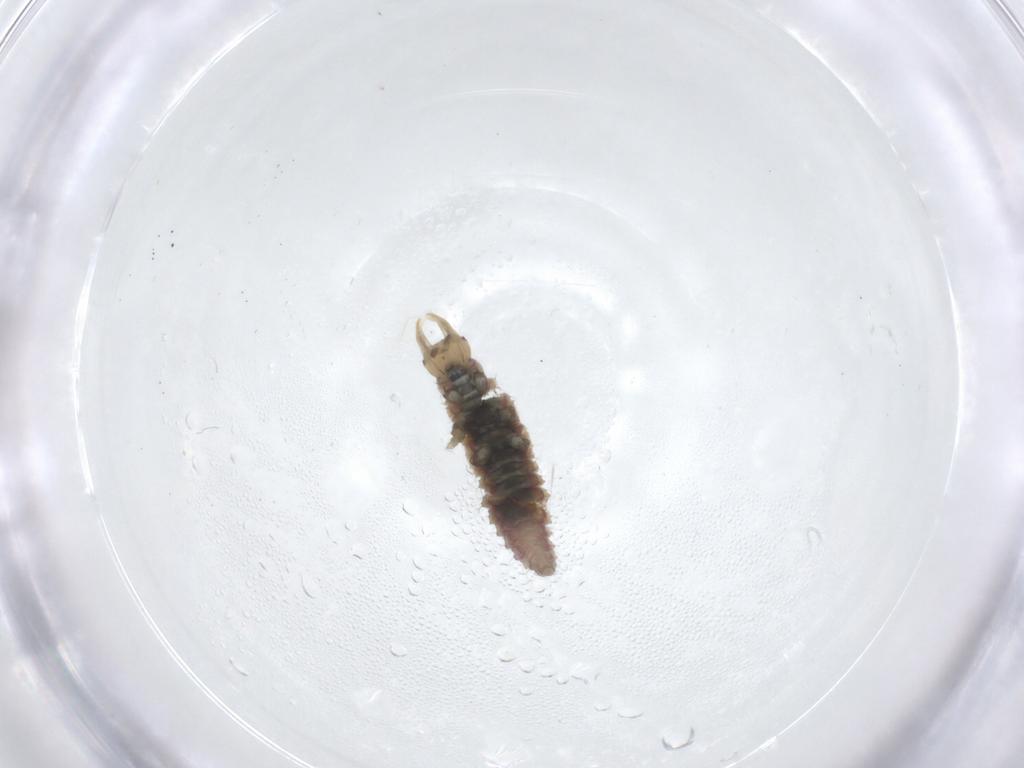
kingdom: Animalia
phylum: Arthropoda
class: Insecta
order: Neuroptera
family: Hemerobiidae
